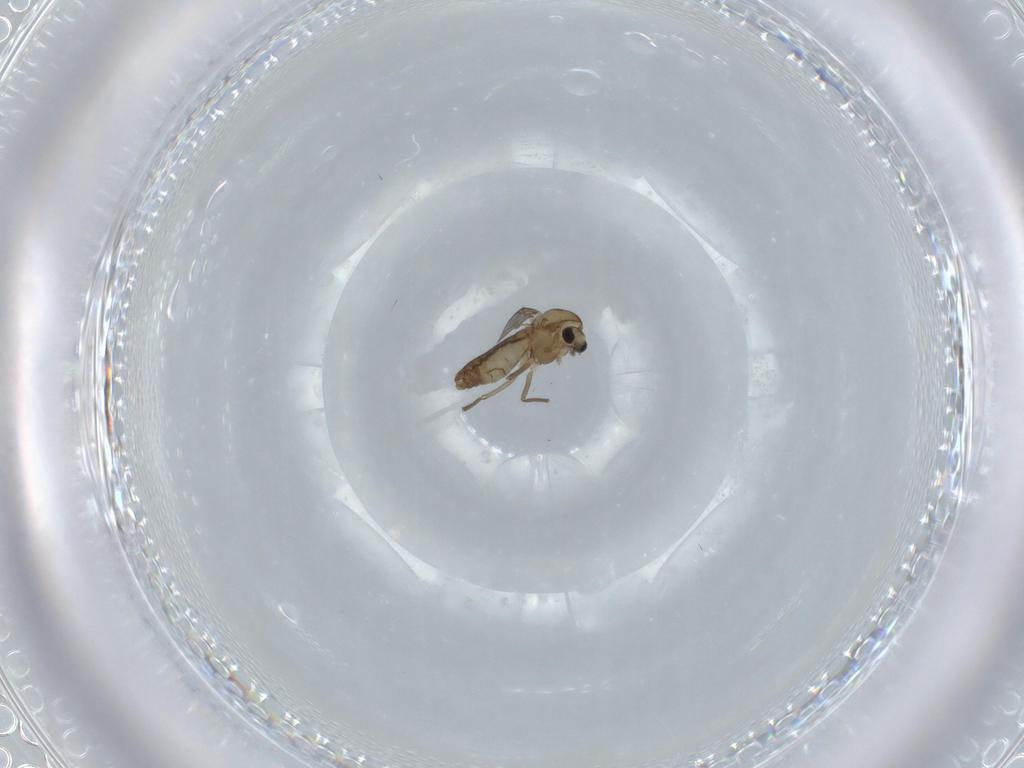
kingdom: Animalia
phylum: Arthropoda
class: Insecta
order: Diptera
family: Chironomidae
